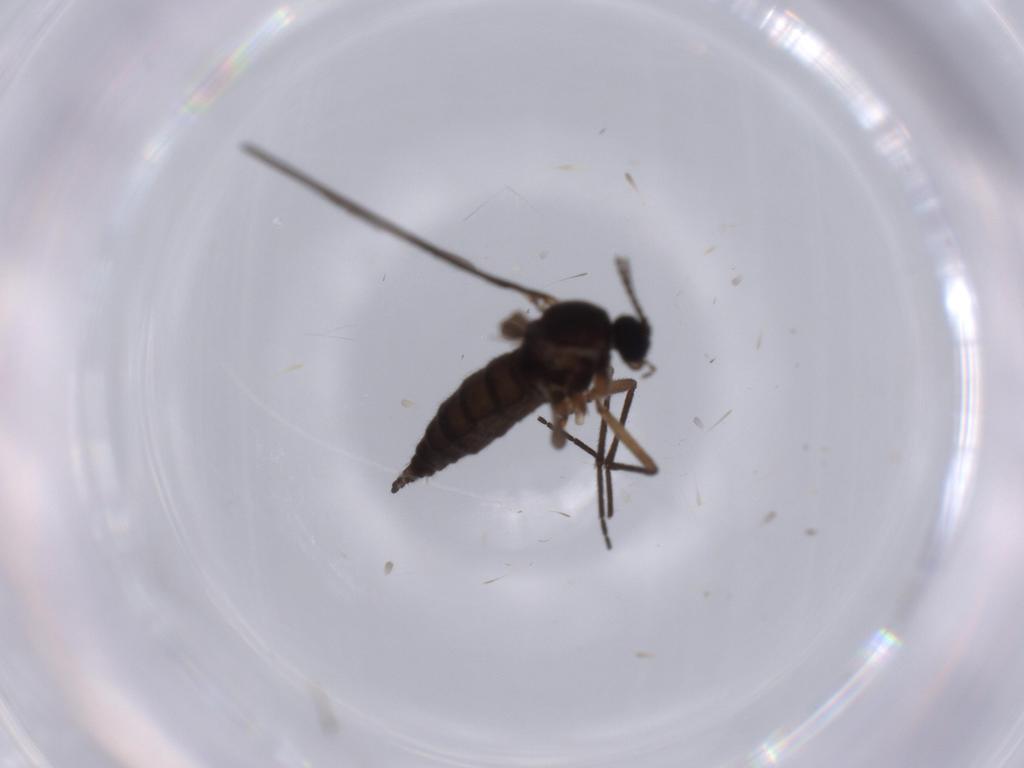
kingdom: Animalia
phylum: Arthropoda
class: Insecta
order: Diptera
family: Sciaridae
